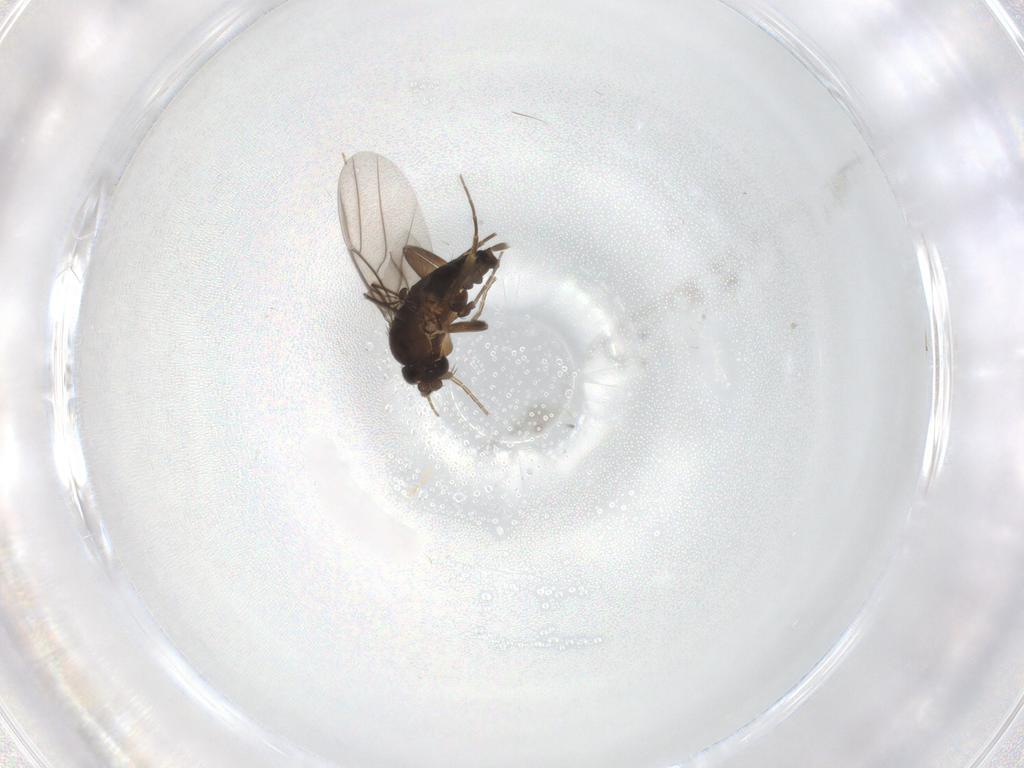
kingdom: Animalia
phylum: Arthropoda
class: Insecta
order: Diptera
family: Phoridae
